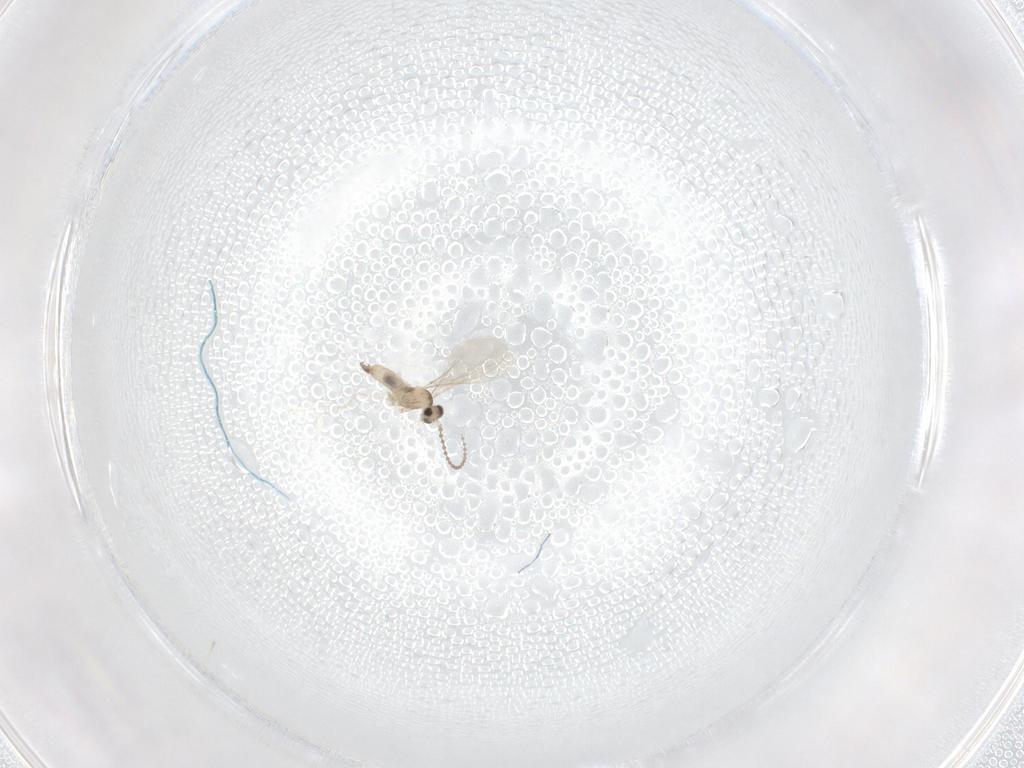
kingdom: Animalia
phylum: Arthropoda
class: Insecta
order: Diptera
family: Cecidomyiidae
